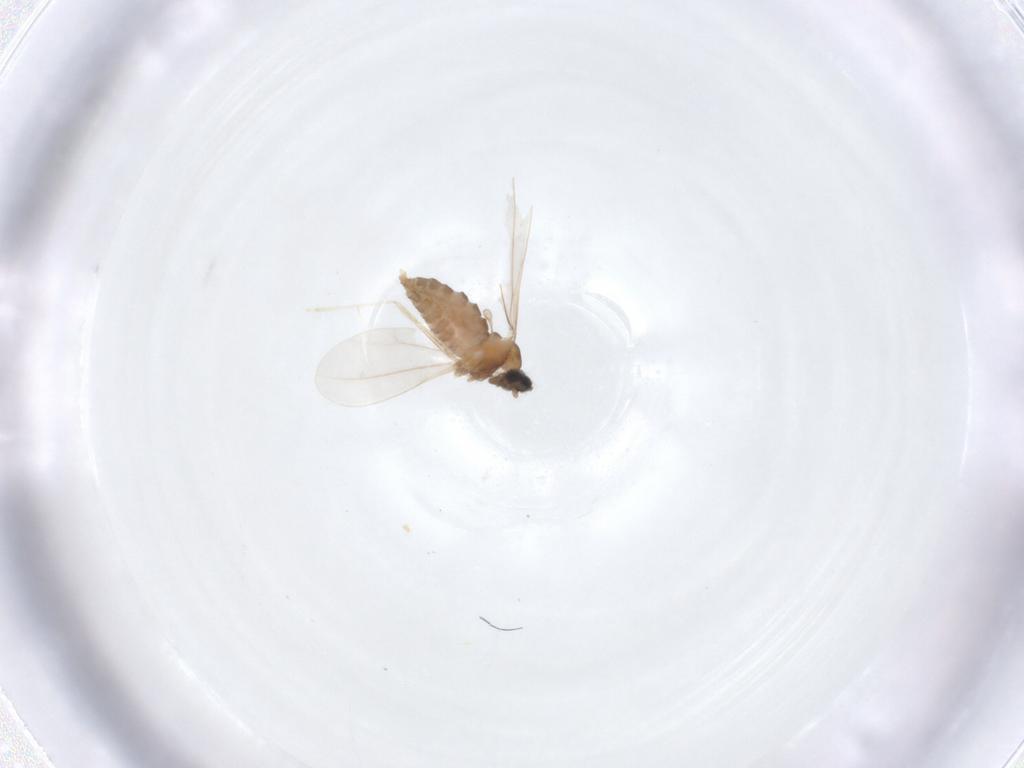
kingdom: Animalia
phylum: Arthropoda
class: Insecta
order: Diptera
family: Cecidomyiidae
